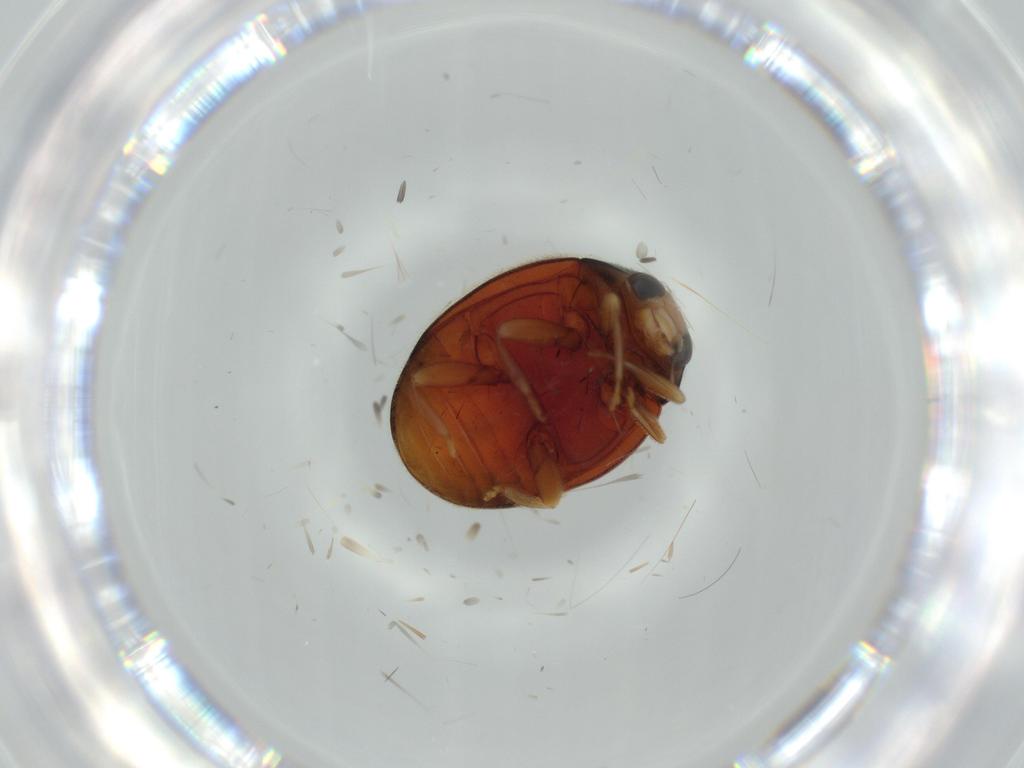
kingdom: Animalia
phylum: Arthropoda
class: Insecta
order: Coleoptera
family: Coccinellidae
